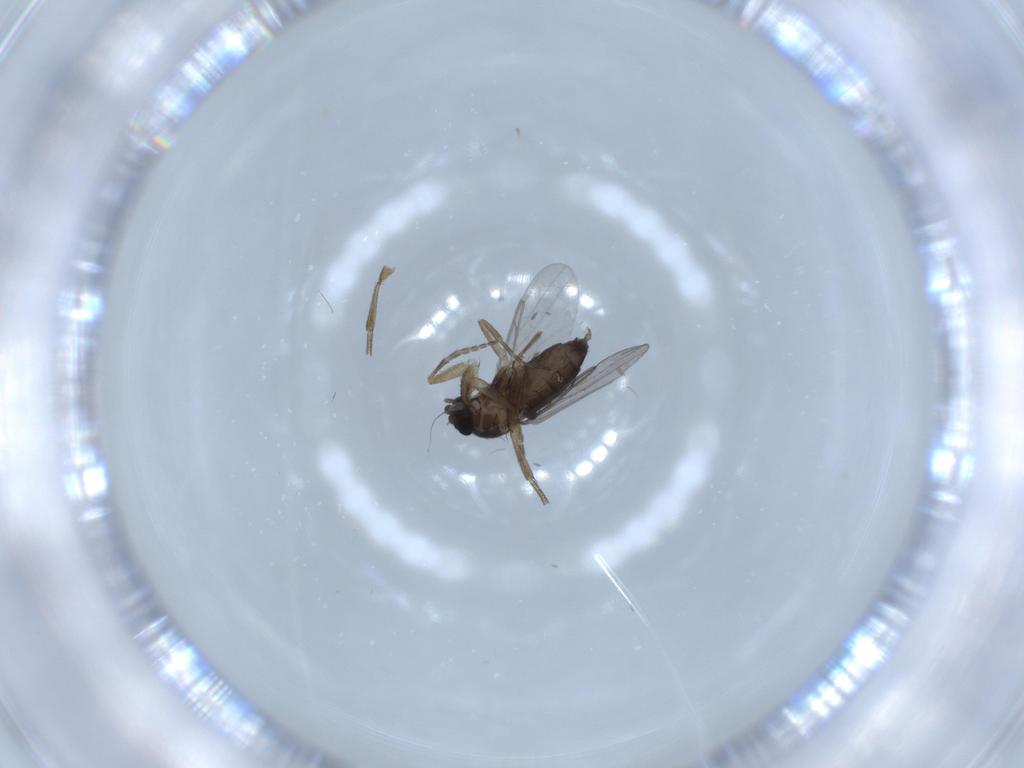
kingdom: Animalia
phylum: Arthropoda
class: Insecta
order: Diptera
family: Phoridae
